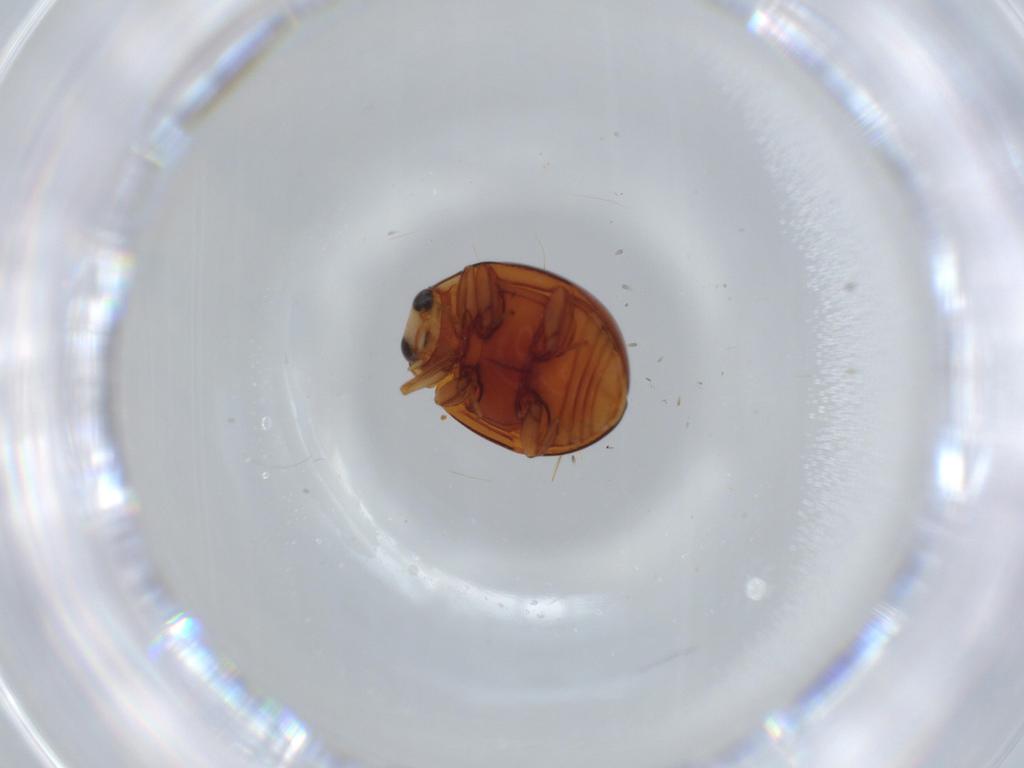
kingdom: Animalia
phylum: Arthropoda
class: Insecta
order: Coleoptera
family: Coccinellidae
